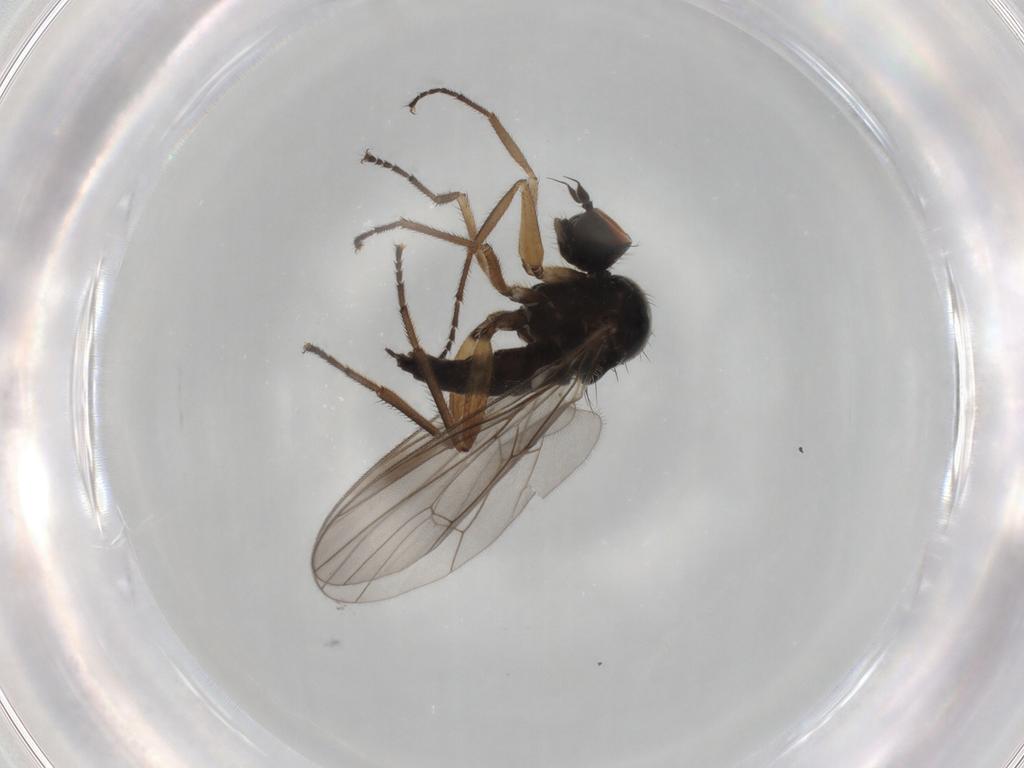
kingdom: Animalia
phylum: Arthropoda
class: Insecta
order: Diptera
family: Hybotidae
